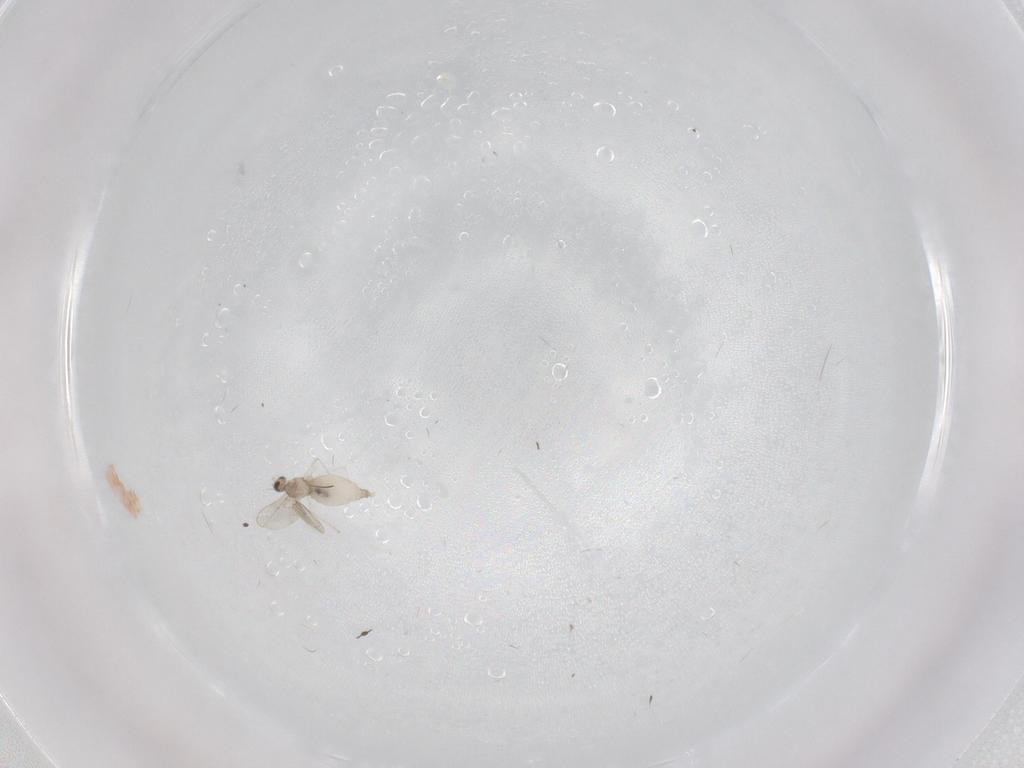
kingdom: Animalia
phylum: Arthropoda
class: Insecta
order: Diptera
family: Cecidomyiidae
